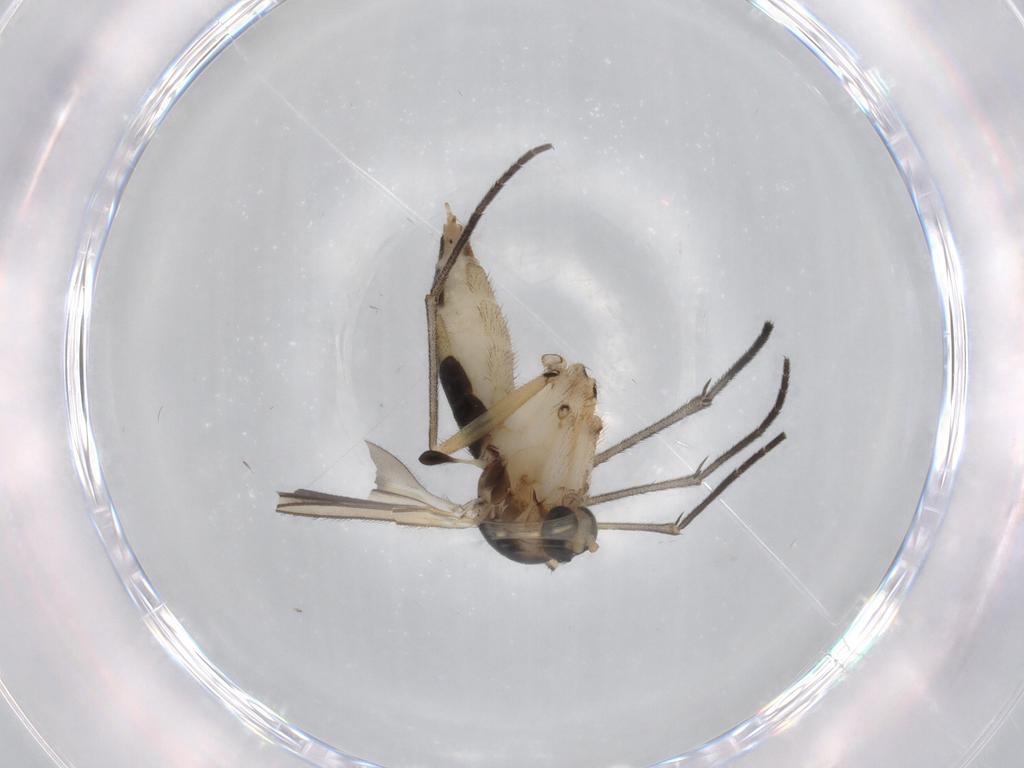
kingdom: Animalia
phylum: Arthropoda
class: Insecta
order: Diptera
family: Sciaridae
